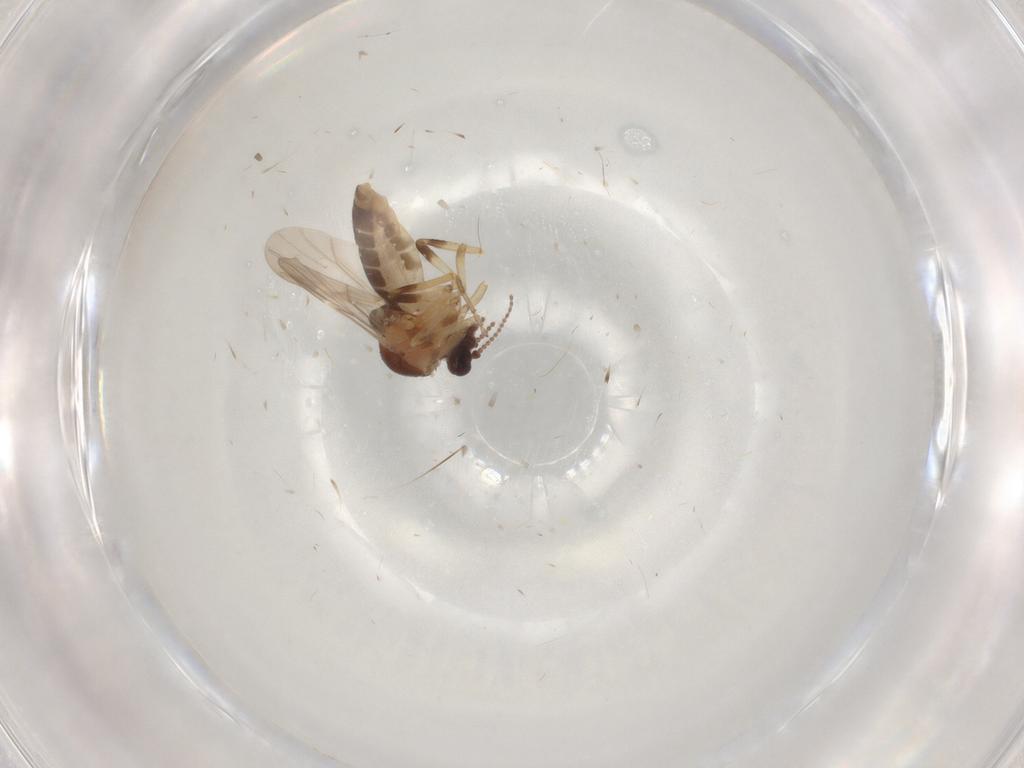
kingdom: Animalia
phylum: Arthropoda
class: Insecta
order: Diptera
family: Ceratopogonidae
